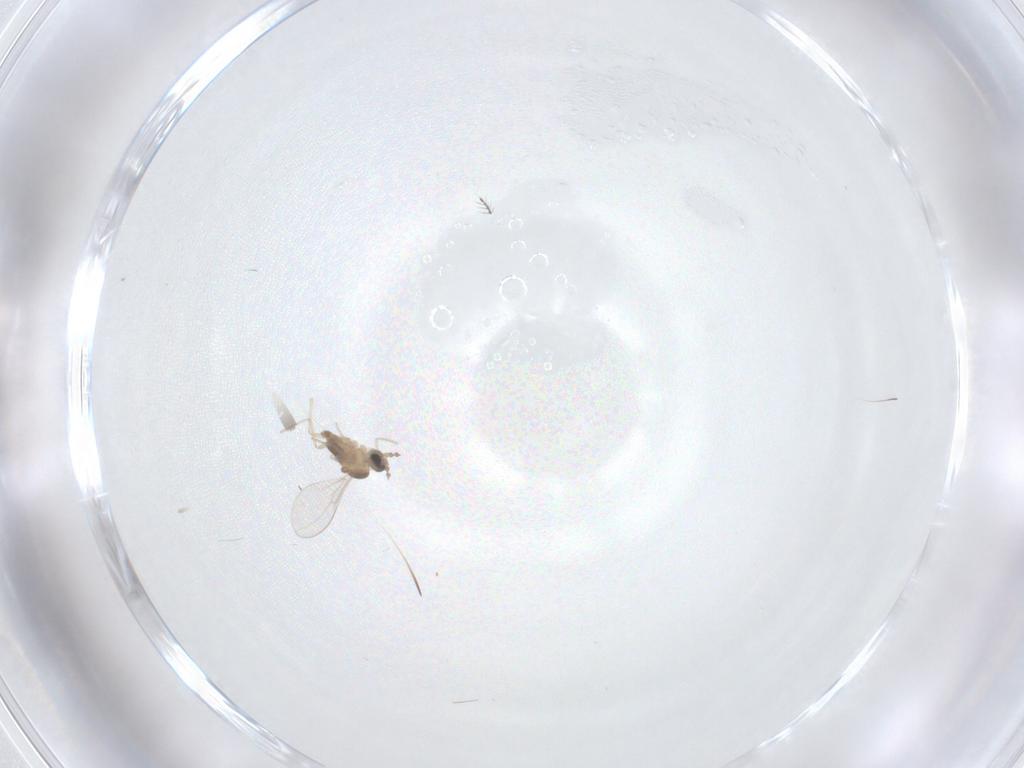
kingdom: Animalia
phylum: Arthropoda
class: Insecta
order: Diptera
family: Cecidomyiidae
